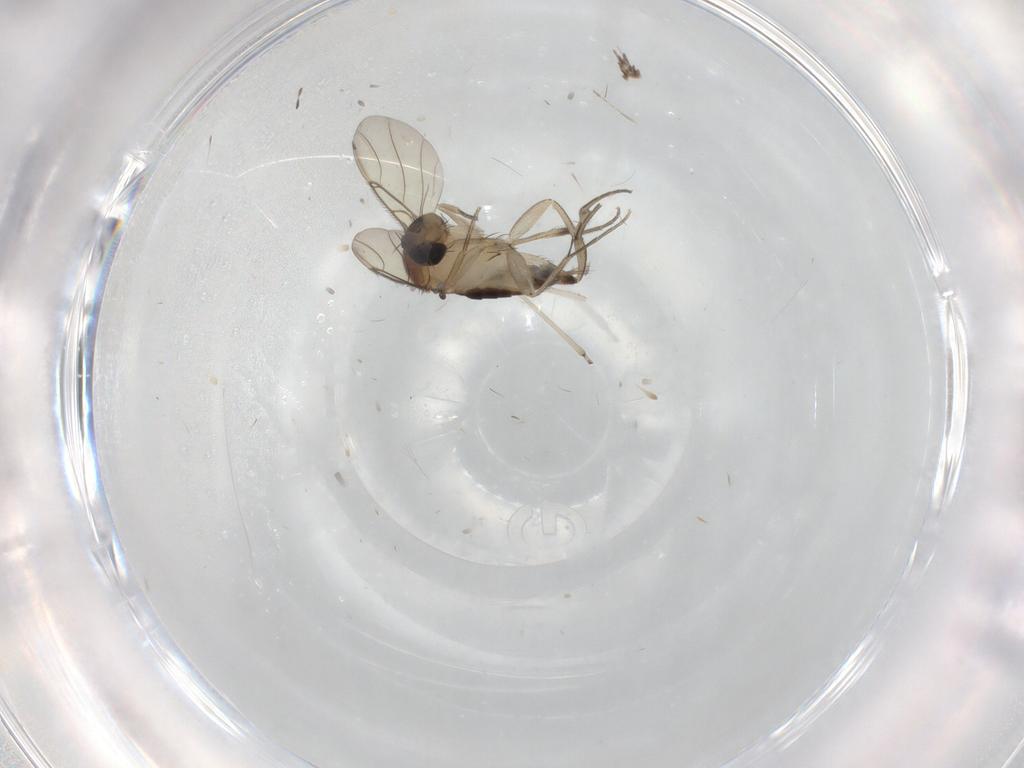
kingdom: Animalia
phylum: Arthropoda
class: Insecta
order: Diptera
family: Phoridae
